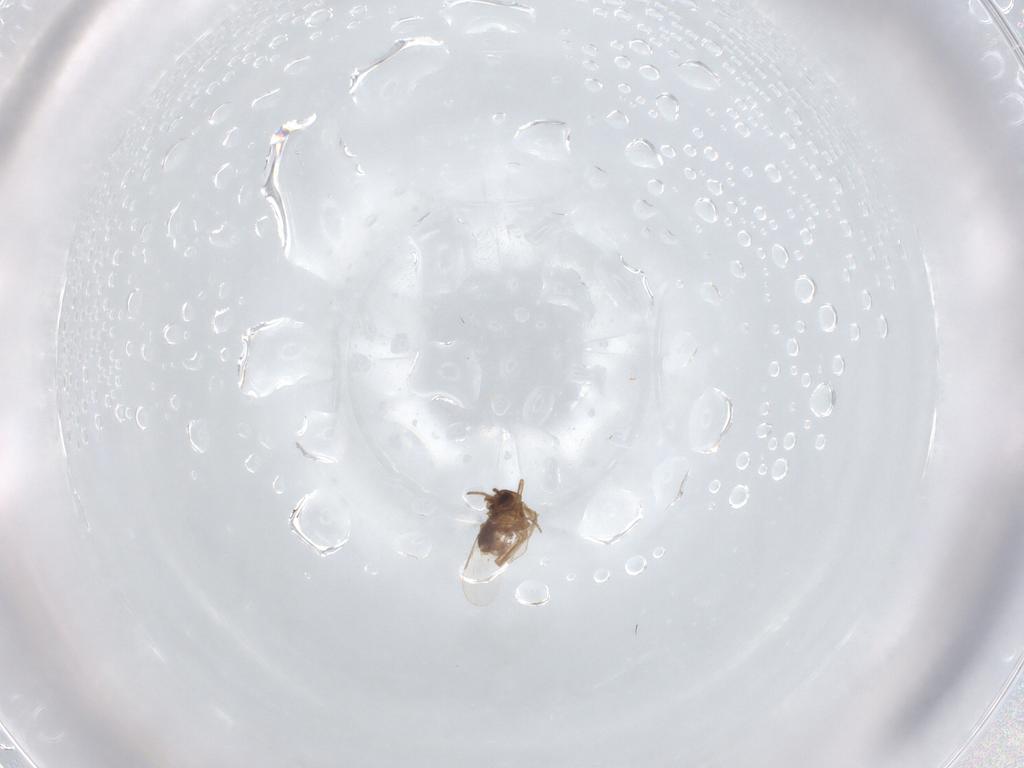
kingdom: Animalia
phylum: Arthropoda
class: Insecta
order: Diptera
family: Ceratopogonidae
